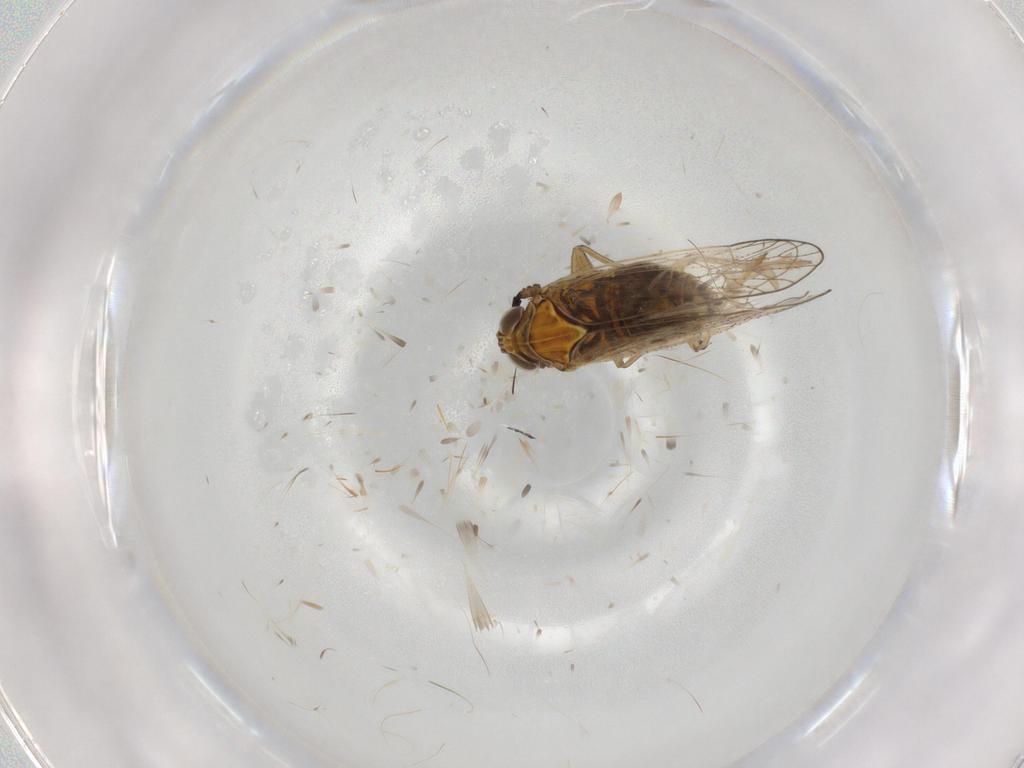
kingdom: Animalia
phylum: Arthropoda
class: Insecta
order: Hemiptera
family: Delphacidae
